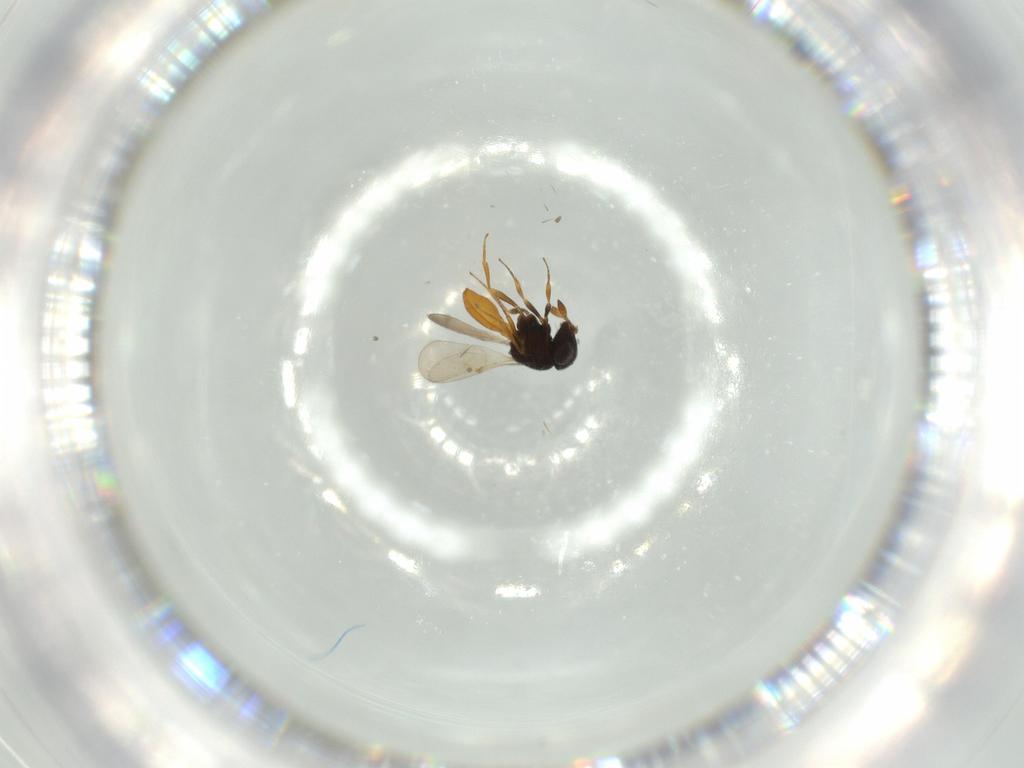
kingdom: Animalia
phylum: Arthropoda
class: Insecta
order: Hymenoptera
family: Scelionidae
